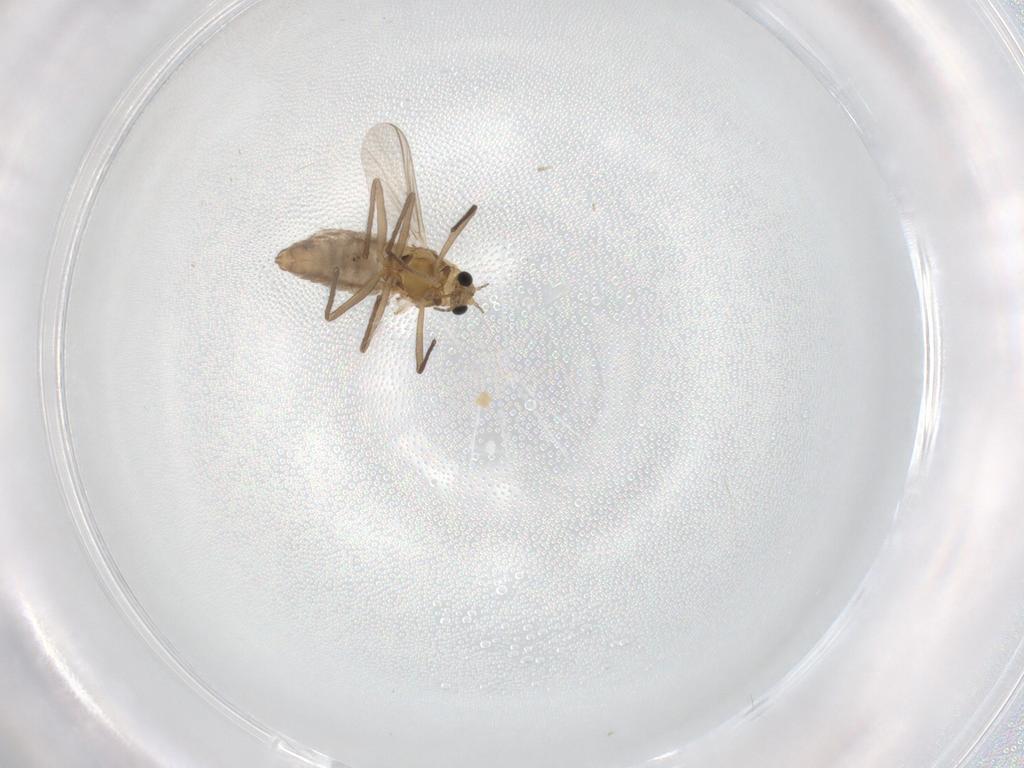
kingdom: Animalia
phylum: Arthropoda
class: Insecta
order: Diptera
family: Chironomidae
